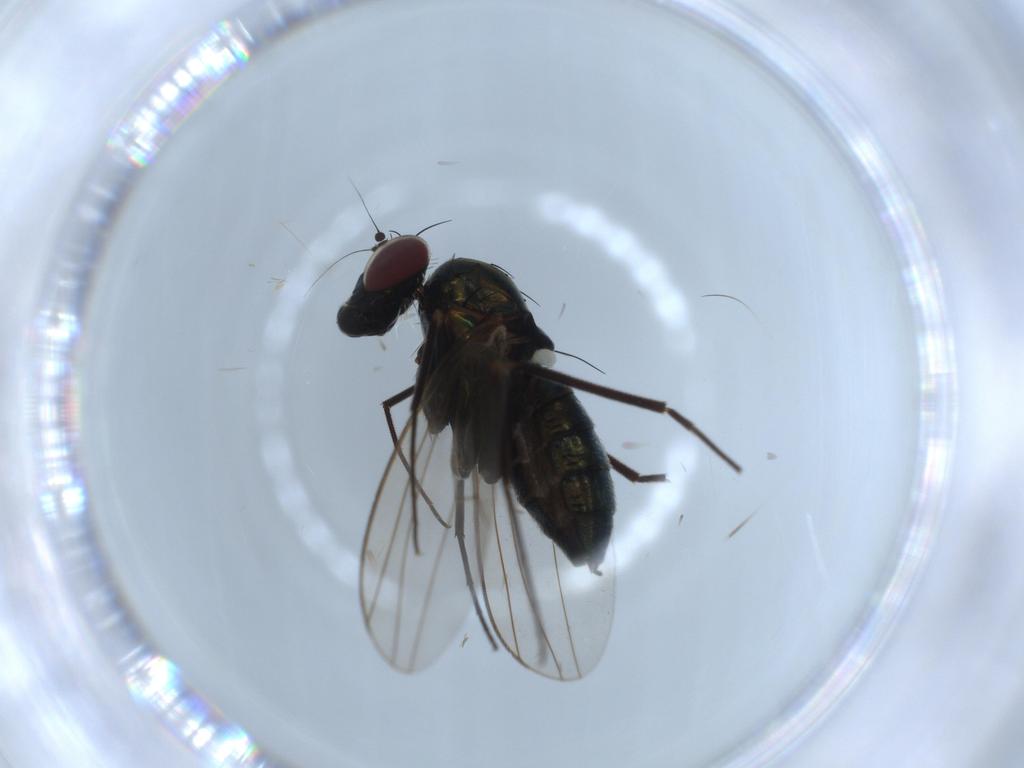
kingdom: Animalia
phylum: Arthropoda
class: Insecta
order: Diptera
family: Dolichopodidae
